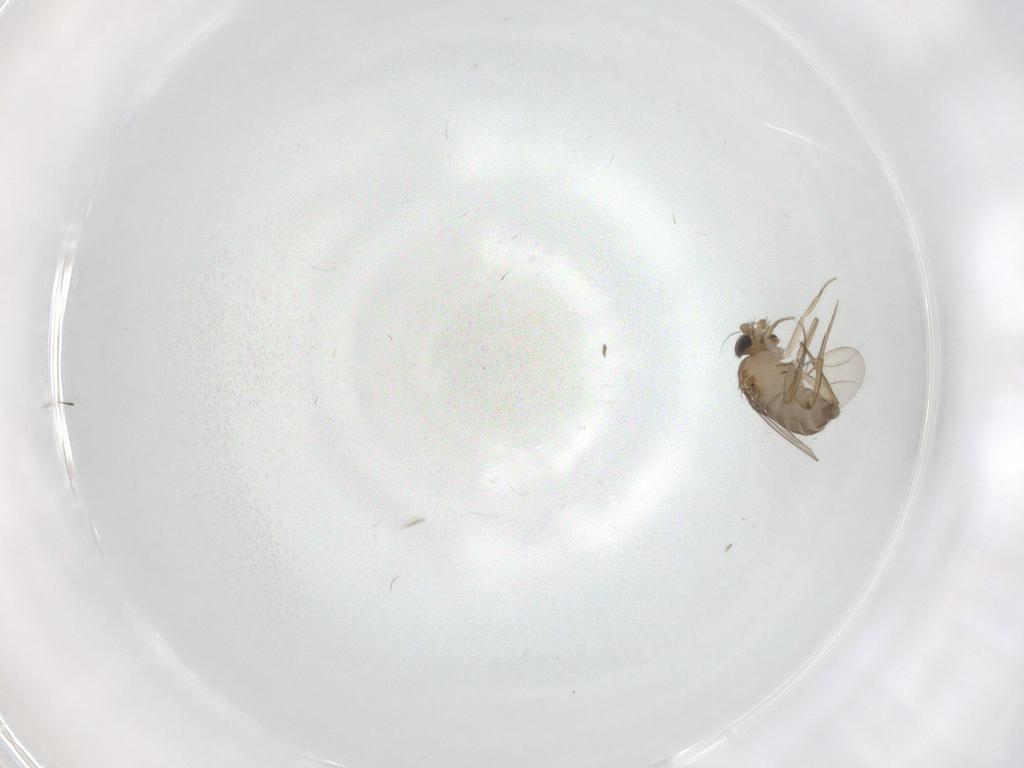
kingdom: Animalia
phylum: Arthropoda
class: Insecta
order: Diptera
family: Phoridae
